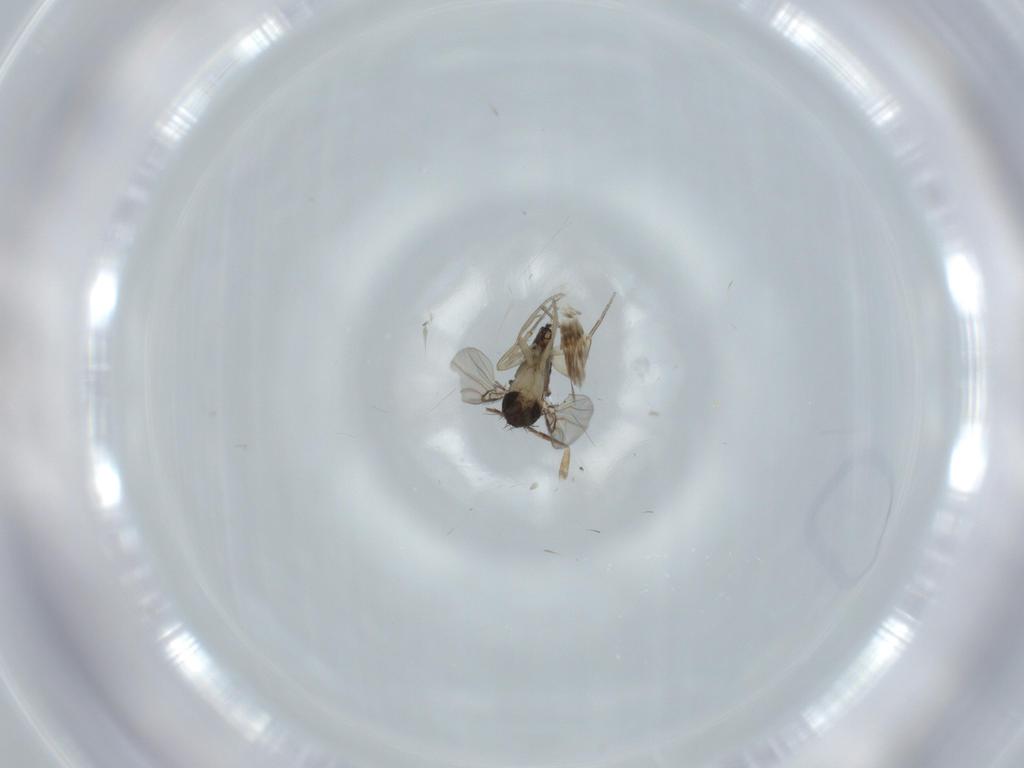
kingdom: Animalia
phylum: Arthropoda
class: Insecta
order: Diptera
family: Phoridae
